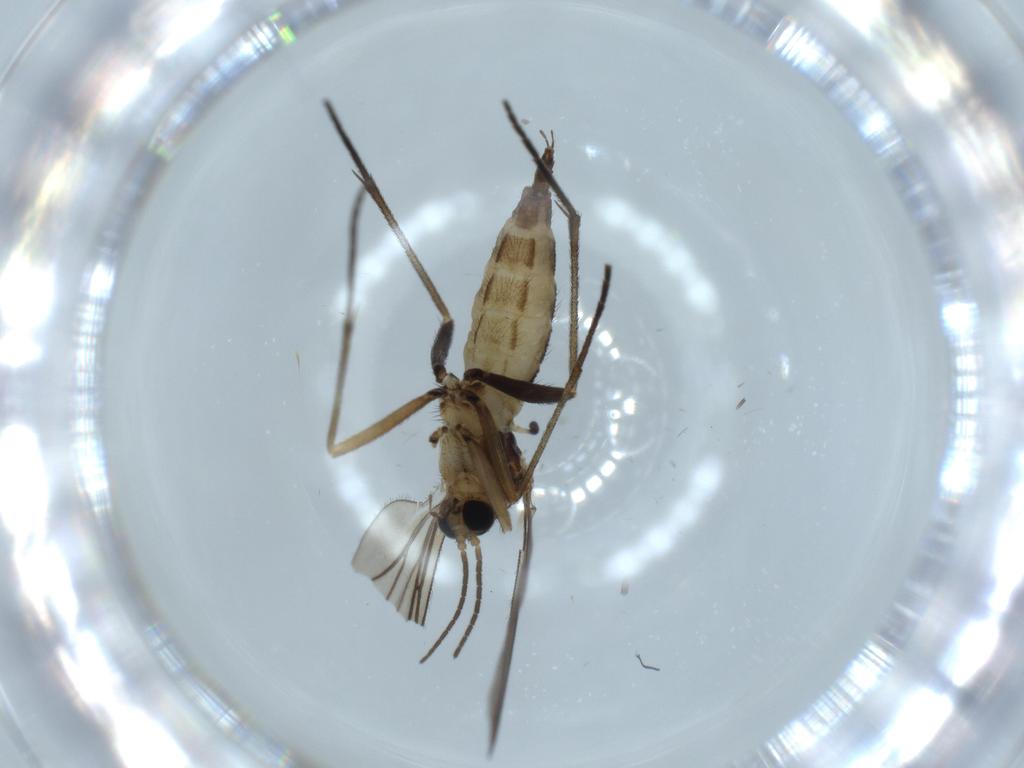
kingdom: Animalia
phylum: Arthropoda
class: Insecta
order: Diptera
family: Sciaridae
